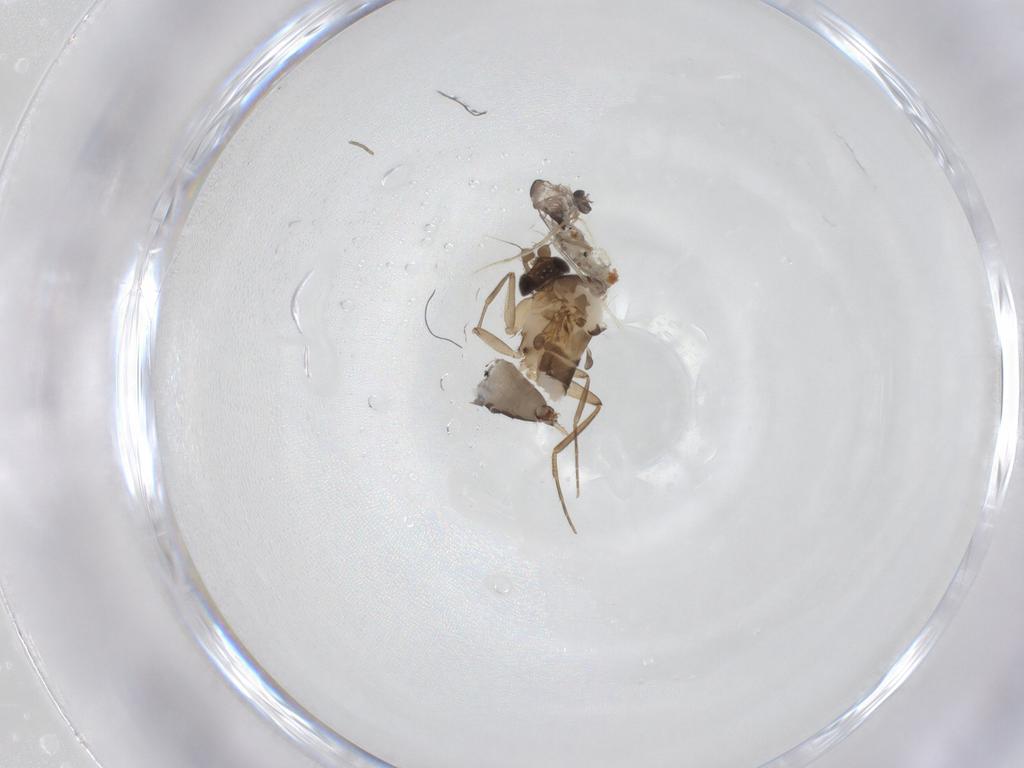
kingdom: Animalia
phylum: Arthropoda
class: Insecta
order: Diptera
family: Phoridae
